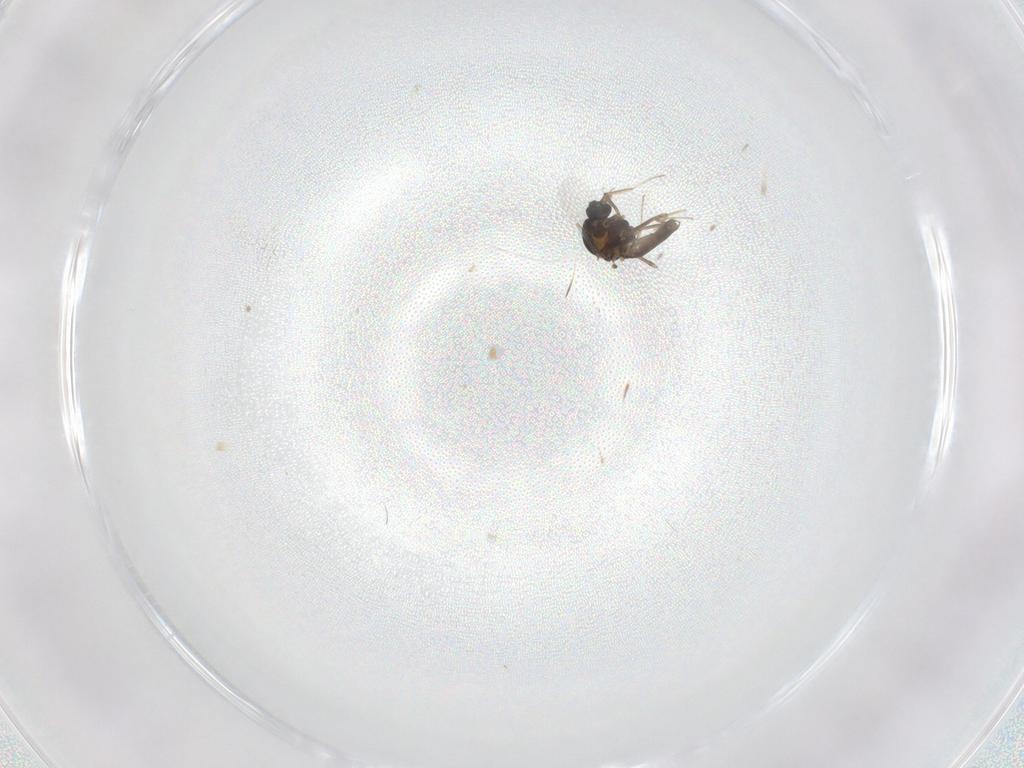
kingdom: Animalia
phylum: Arthropoda
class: Insecta
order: Diptera
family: Ceratopogonidae
